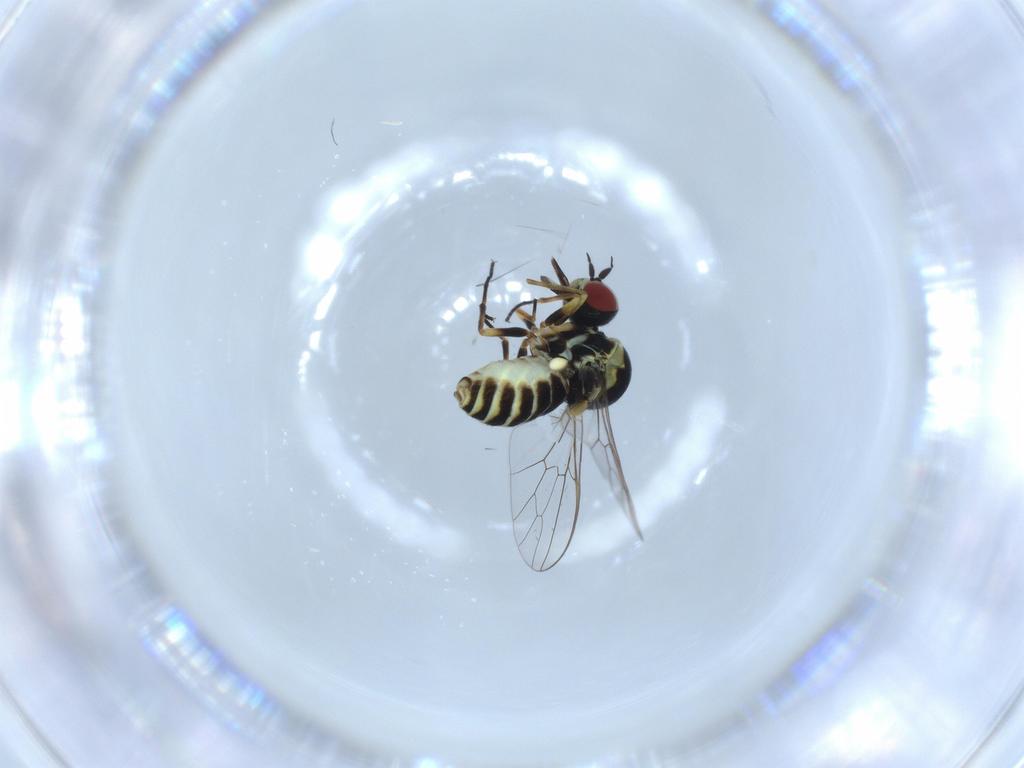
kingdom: Animalia
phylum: Arthropoda
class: Insecta
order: Diptera
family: Bombyliidae
